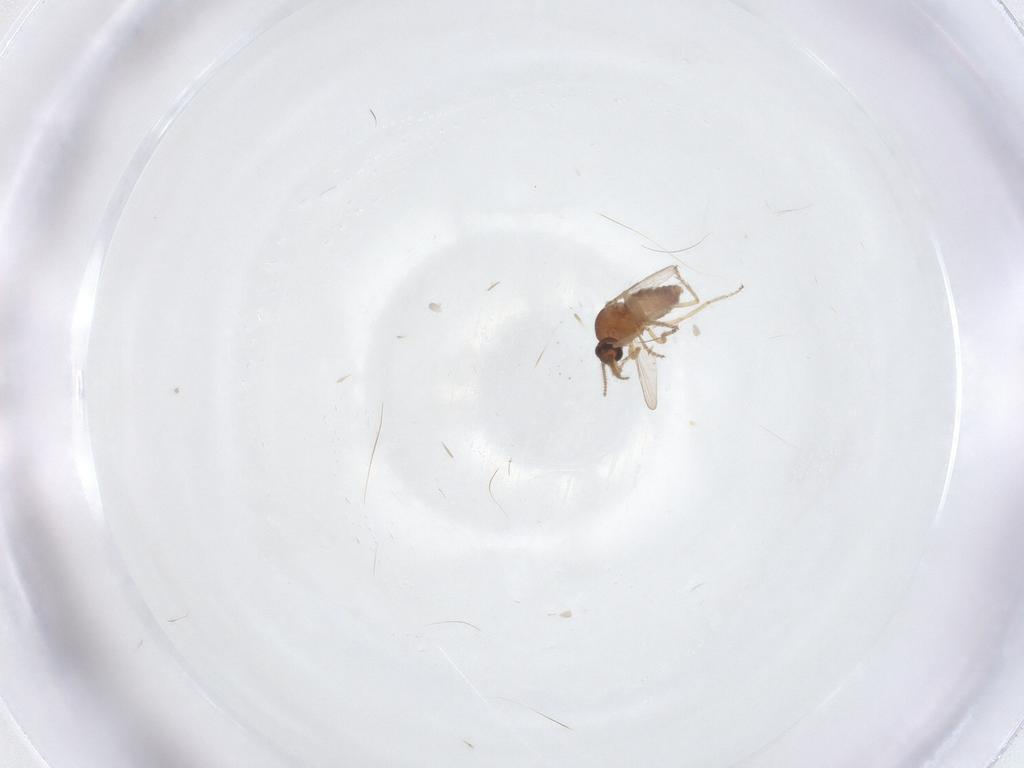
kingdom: Animalia
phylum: Arthropoda
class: Insecta
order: Diptera
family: Ceratopogonidae
